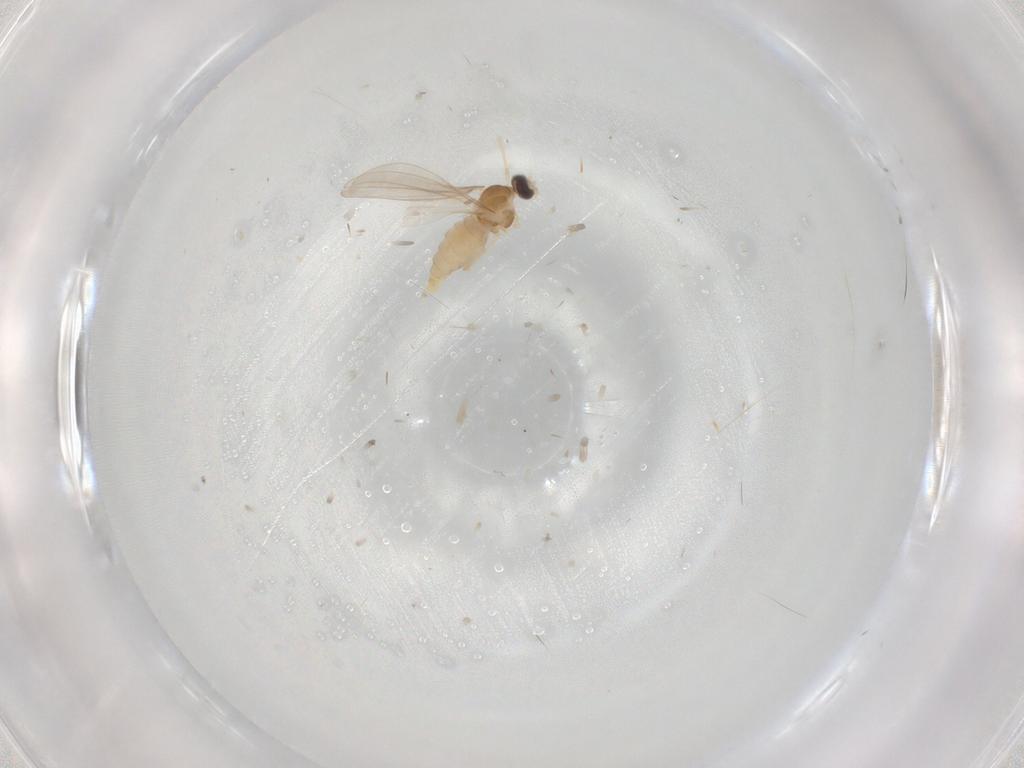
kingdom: Animalia
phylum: Arthropoda
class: Insecta
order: Diptera
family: Cecidomyiidae
